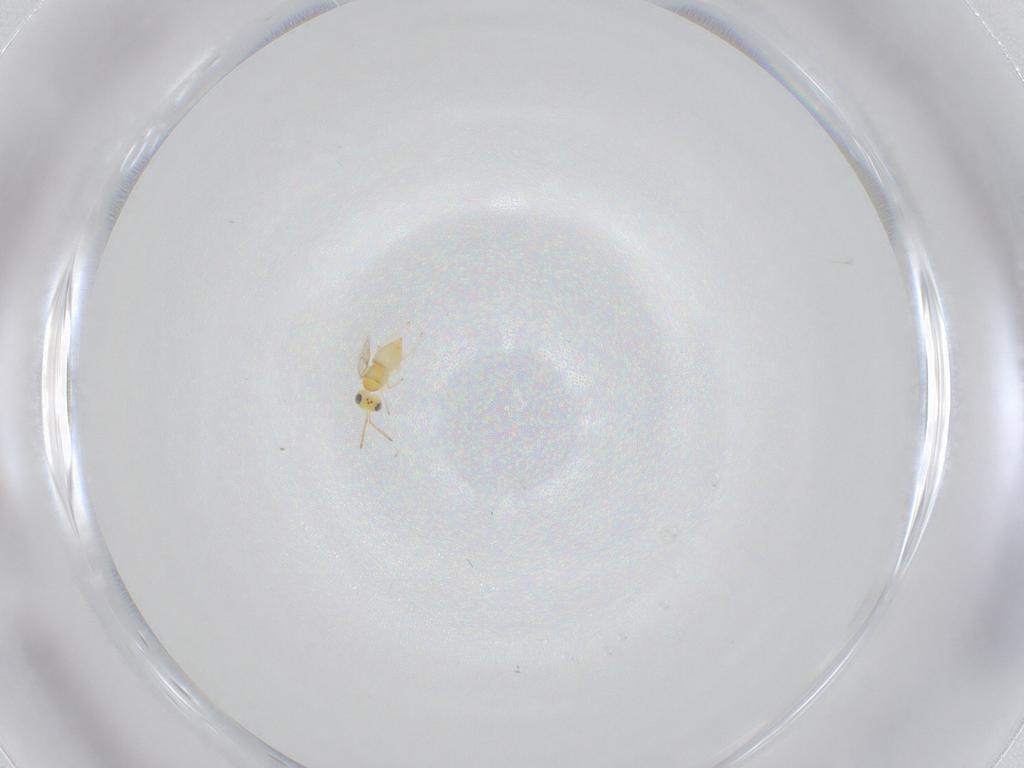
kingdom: Animalia
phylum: Arthropoda
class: Insecta
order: Hymenoptera
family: Aphelinidae
